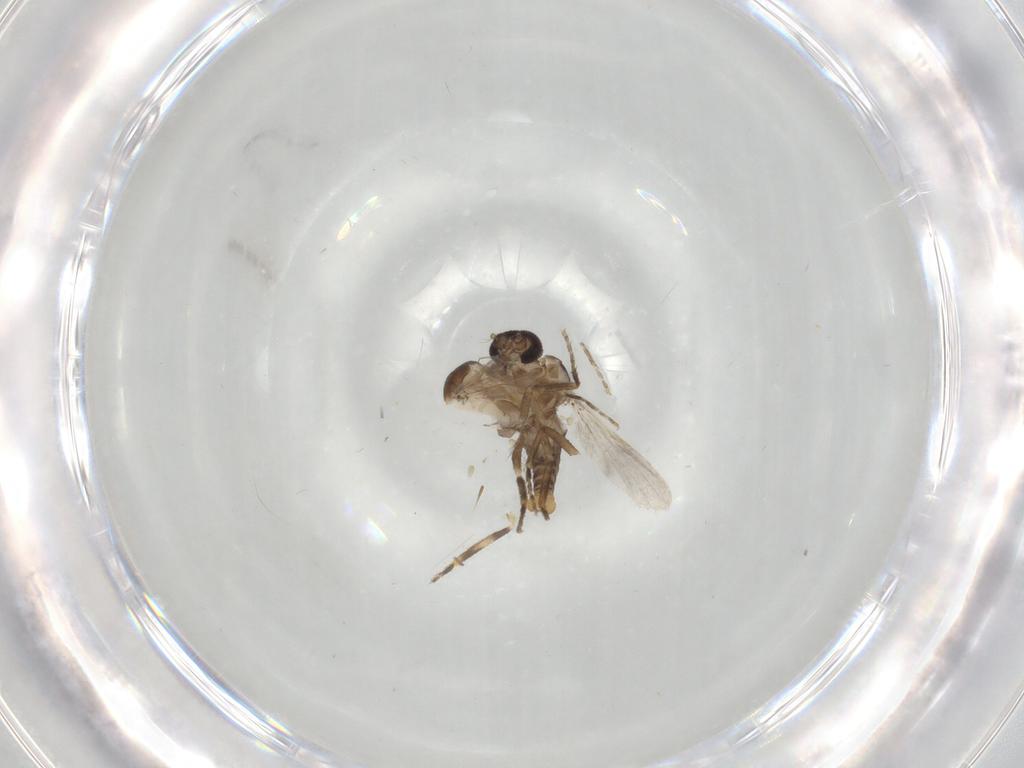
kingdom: Animalia
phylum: Arthropoda
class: Insecta
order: Diptera
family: Ceratopogonidae
